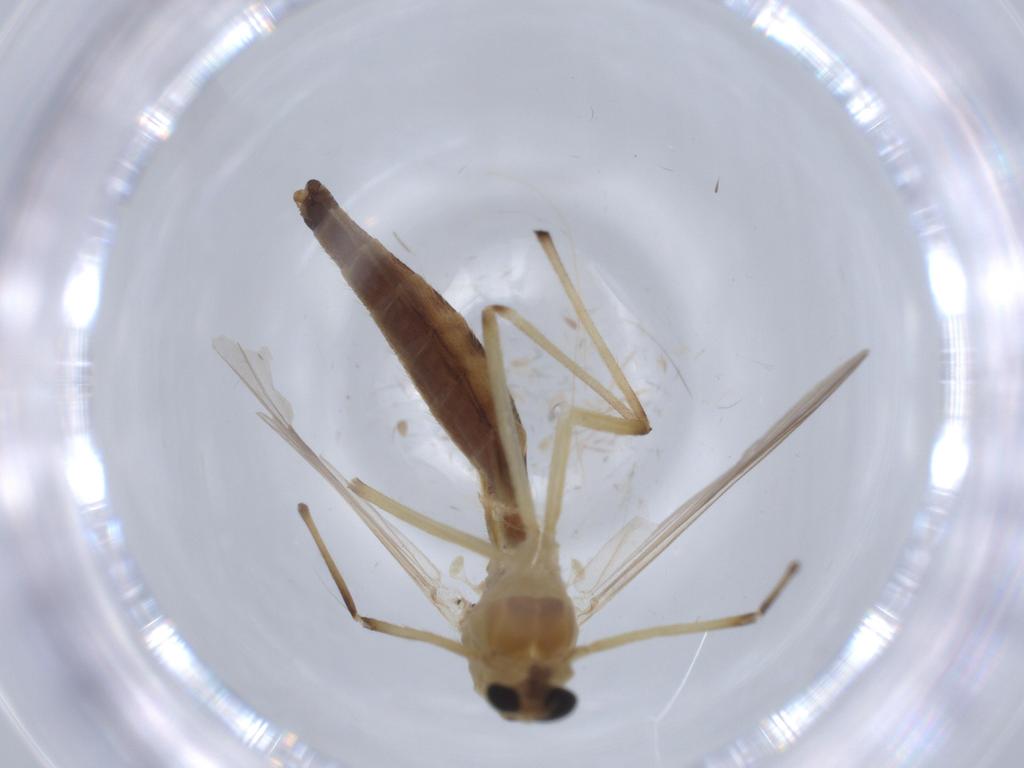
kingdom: Animalia
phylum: Arthropoda
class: Insecta
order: Diptera
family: Chironomidae
